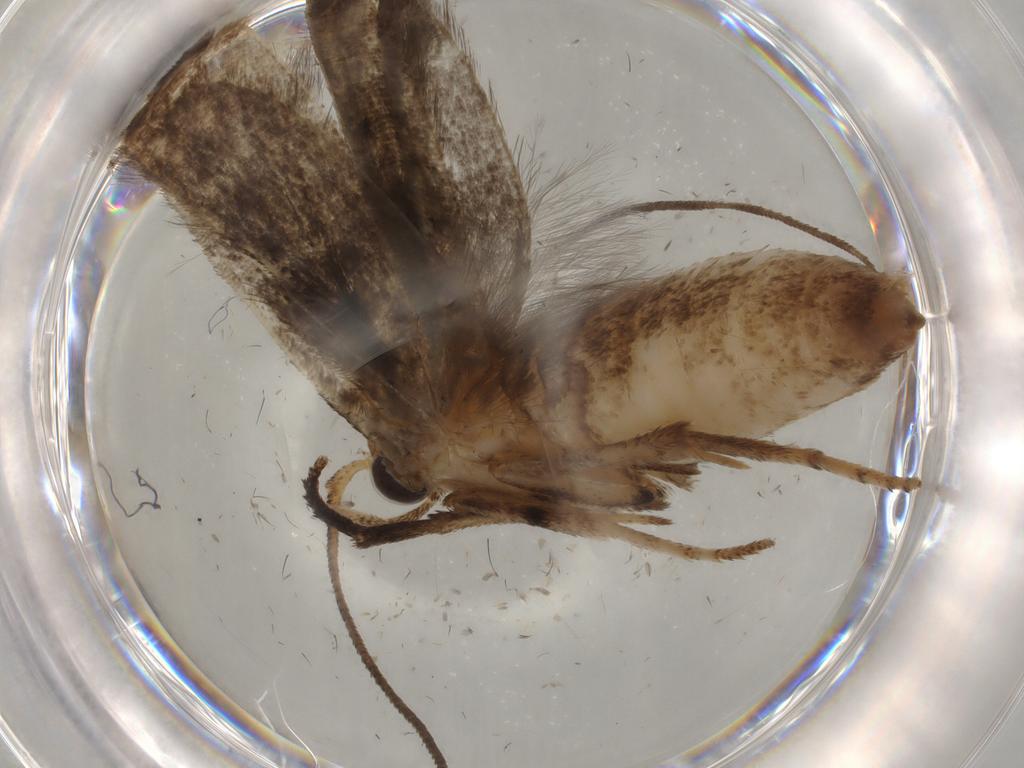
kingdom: Animalia
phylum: Arthropoda
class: Insecta
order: Lepidoptera
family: Yponomeutidae
